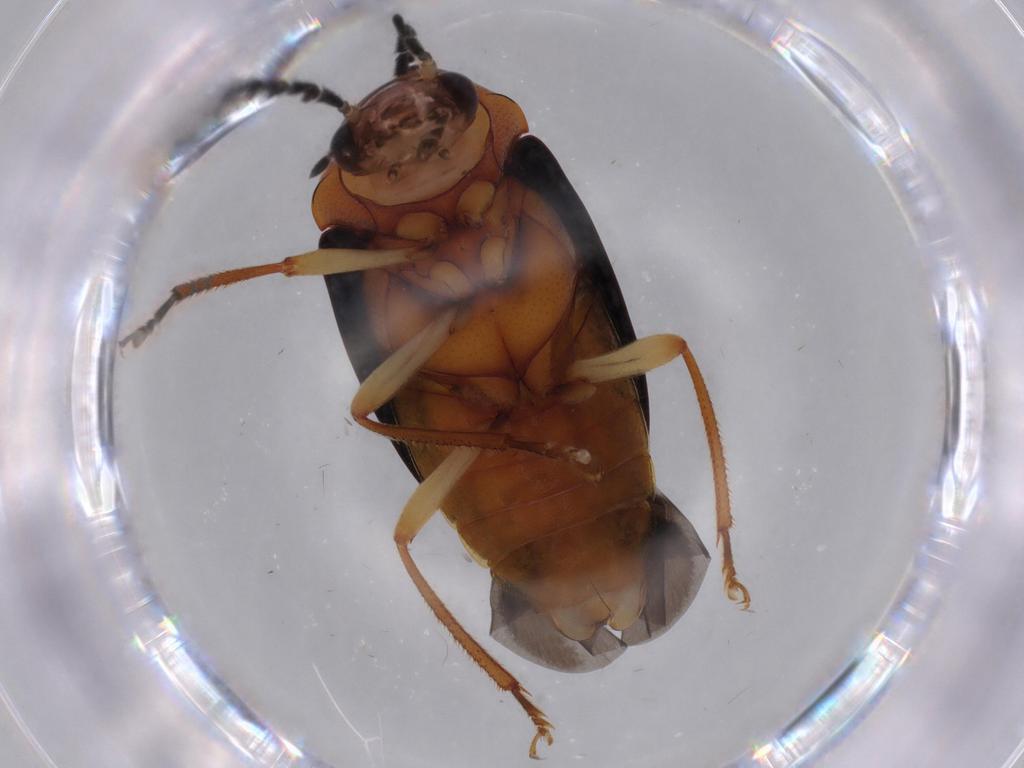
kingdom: Animalia
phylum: Arthropoda
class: Insecta
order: Coleoptera
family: Ptilodactylidae
